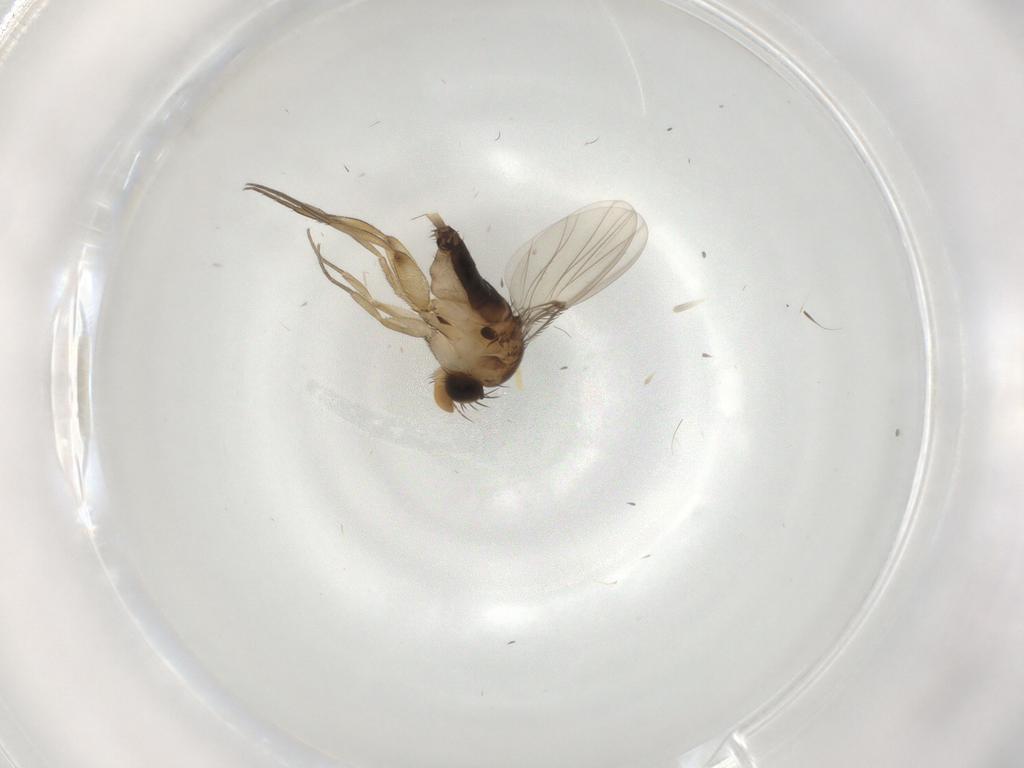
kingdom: Animalia
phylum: Arthropoda
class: Insecta
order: Diptera
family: Phoridae
